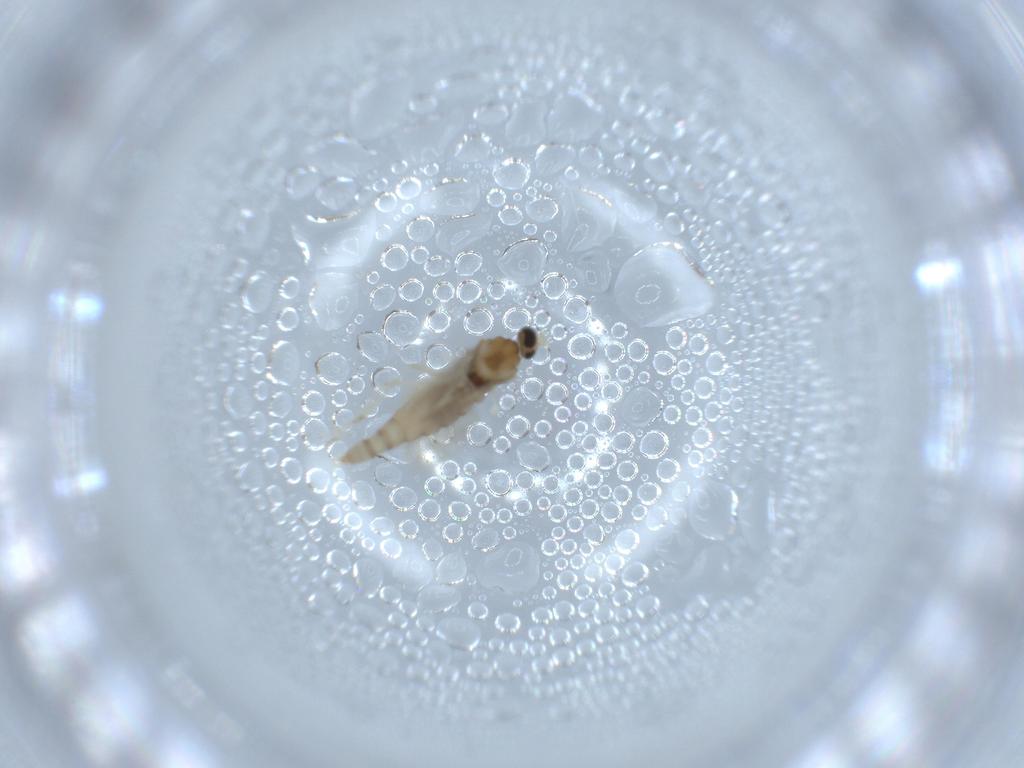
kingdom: Animalia
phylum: Arthropoda
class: Insecta
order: Diptera
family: Cecidomyiidae
